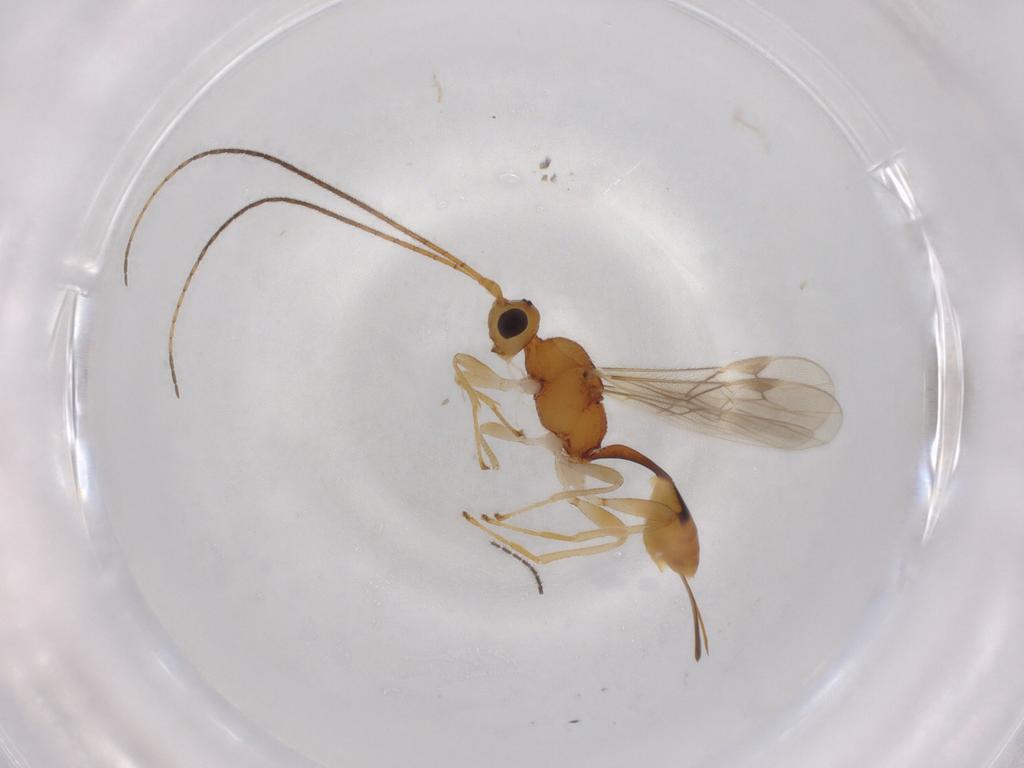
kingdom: Animalia
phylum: Arthropoda
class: Insecta
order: Hymenoptera
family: Braconidae
